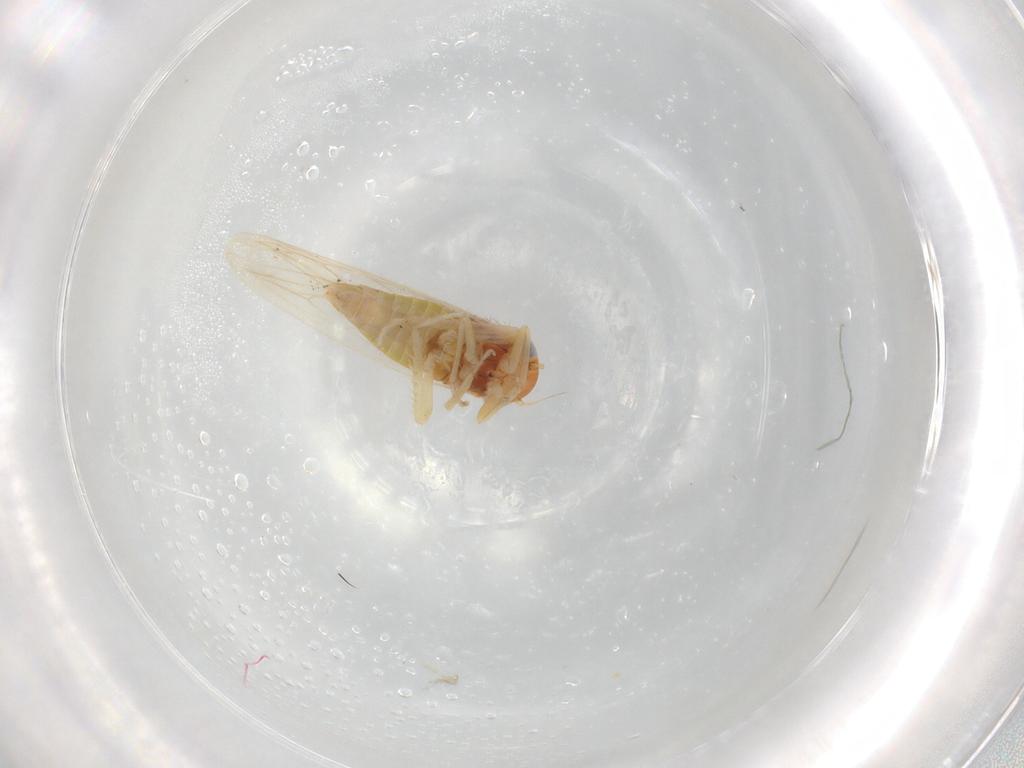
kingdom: Animalia
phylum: Arthropoda
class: Insecta
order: Hemiptera
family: Cicadellidae
